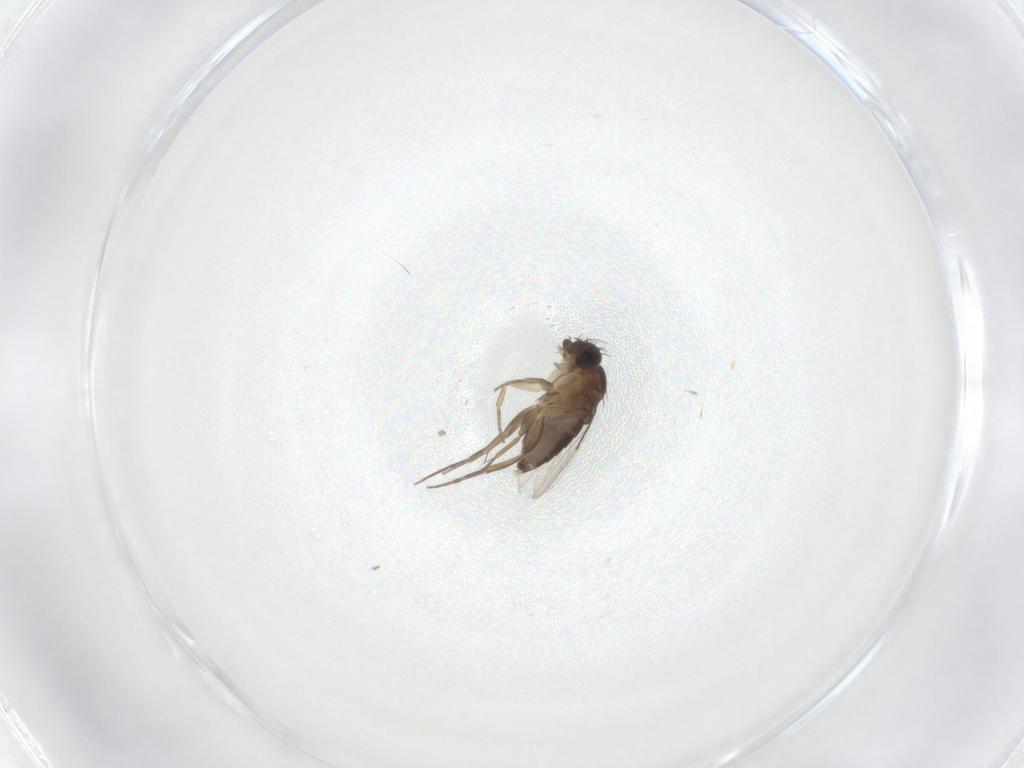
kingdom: Animalia
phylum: Arthropoda
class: Insecta
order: Diptera
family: Phoridae
